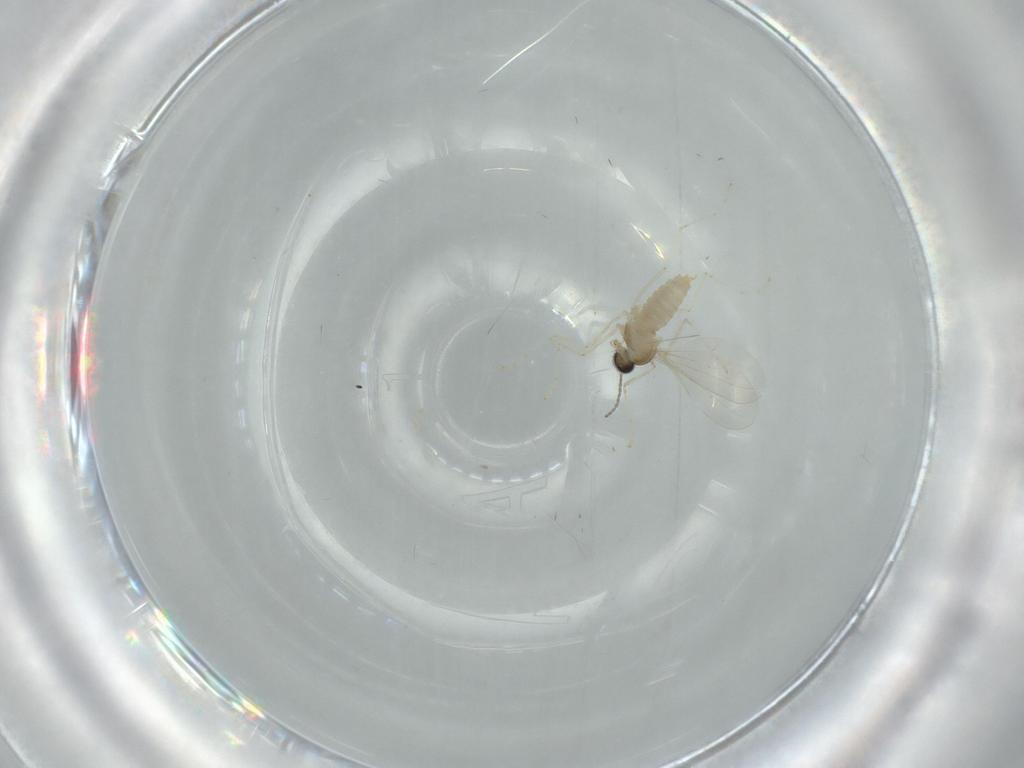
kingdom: Animalia
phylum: Arthropoda
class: Insecta
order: Diptera
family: Cecidomyiidae
